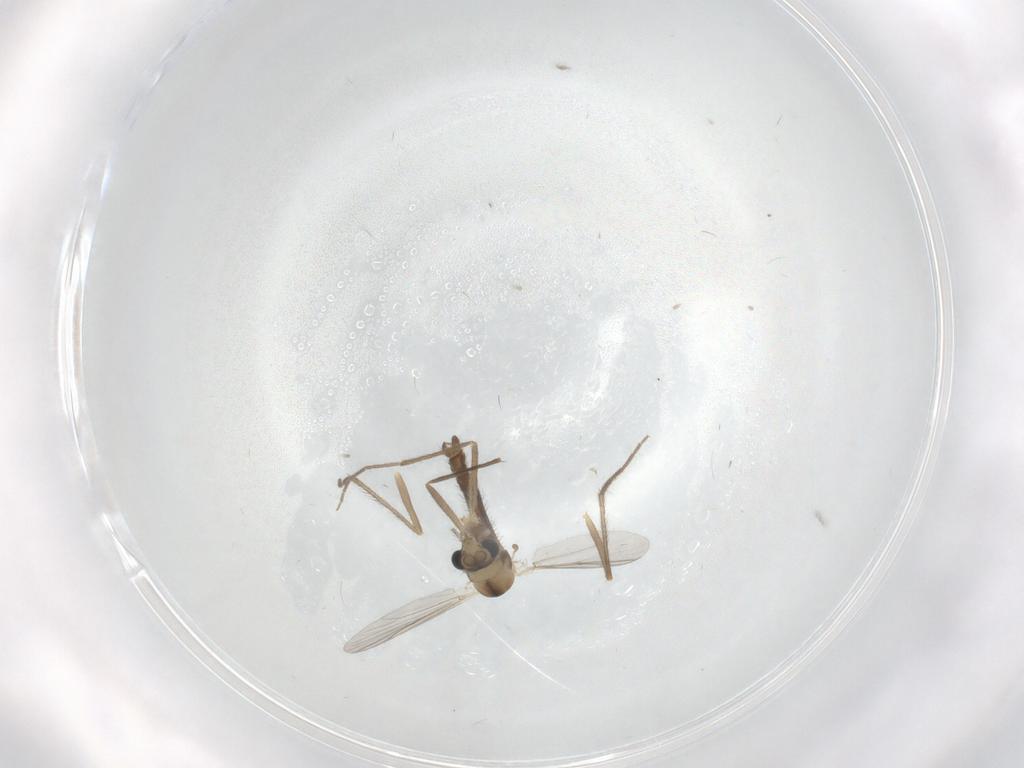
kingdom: Animalia
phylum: Arthropoda
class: Insecta
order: Diptera
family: Chironomidae
